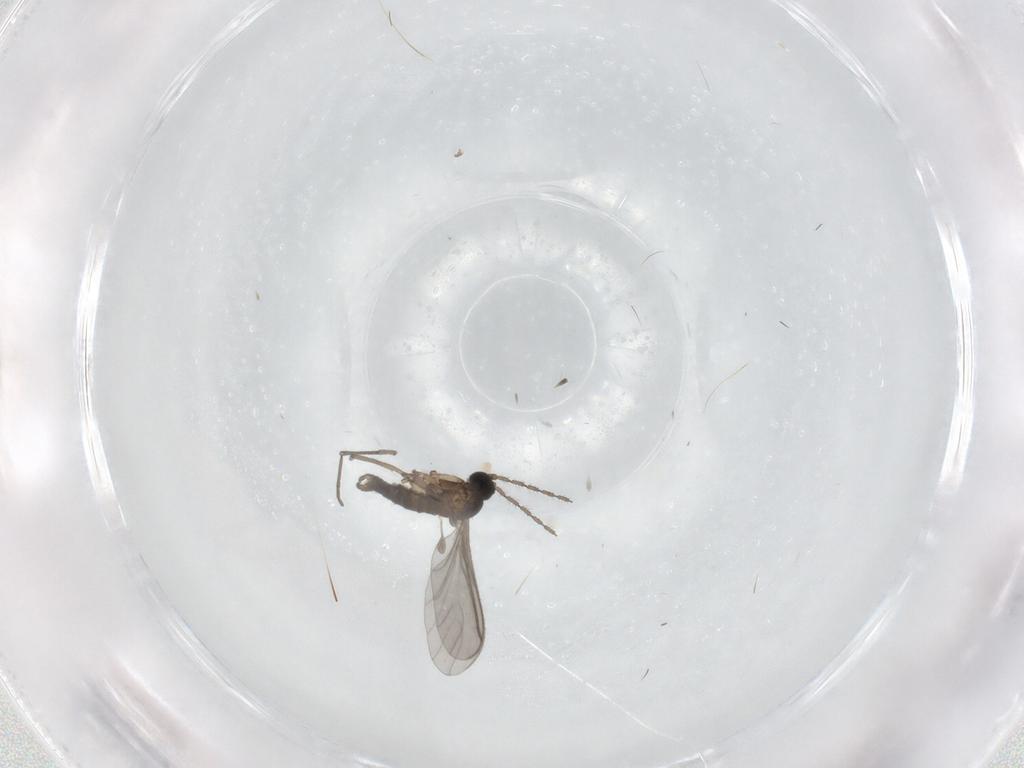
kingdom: Animalia
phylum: Arthropoda
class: Insecta
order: Diptera
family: Sciaridae
